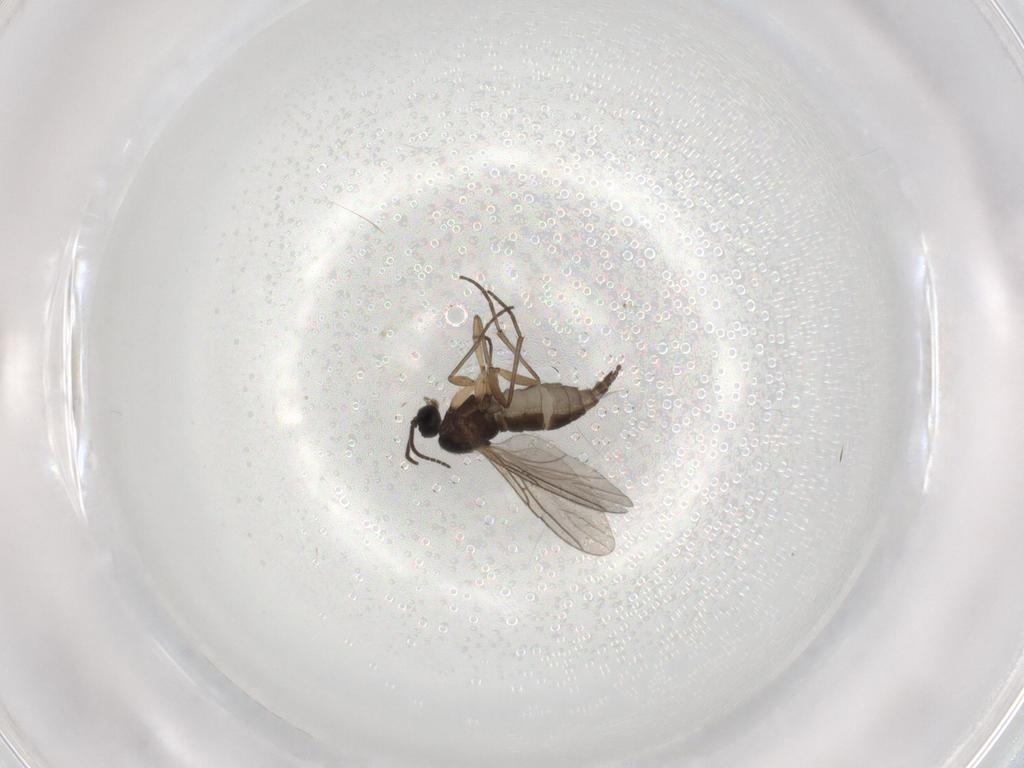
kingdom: Animalia
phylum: Arthropoda
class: Insecta
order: Diptera
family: Sciaridae
